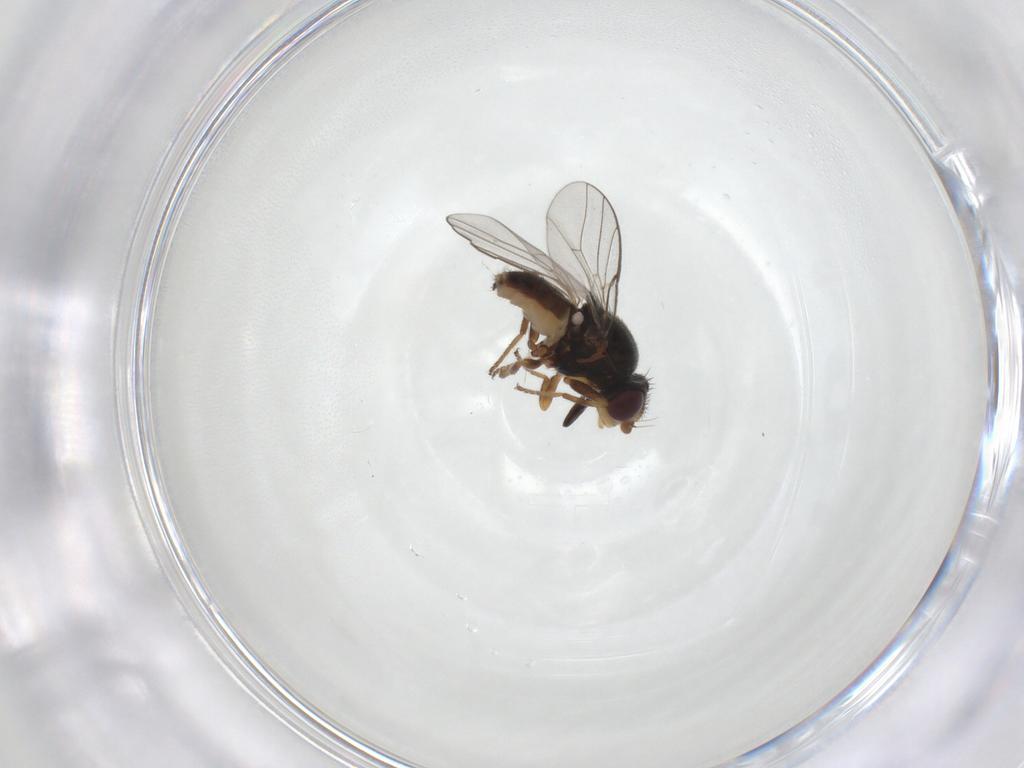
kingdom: Animalia
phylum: Arthropoda
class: Insecta
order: Diptera
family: Chloropidae
